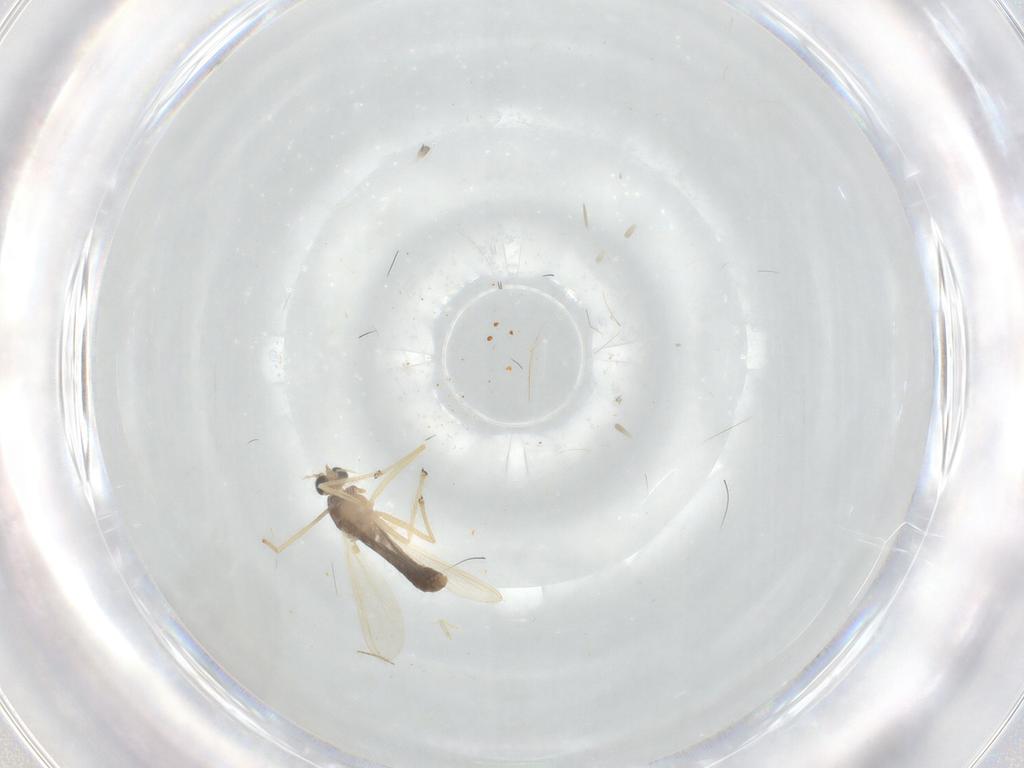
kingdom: Animalia
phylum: Arthropoda
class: Insecta
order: Diptera
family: Chironomidae
